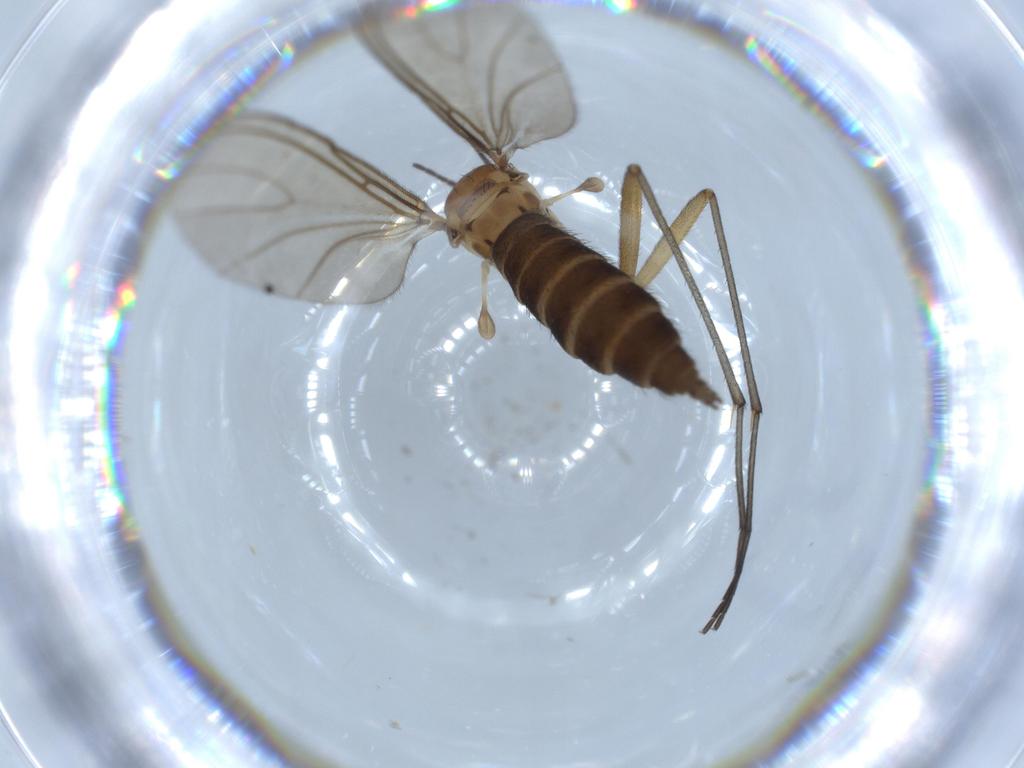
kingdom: Animalia
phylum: Arthropoda
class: Insecta
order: Diptera
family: Sciaridae
